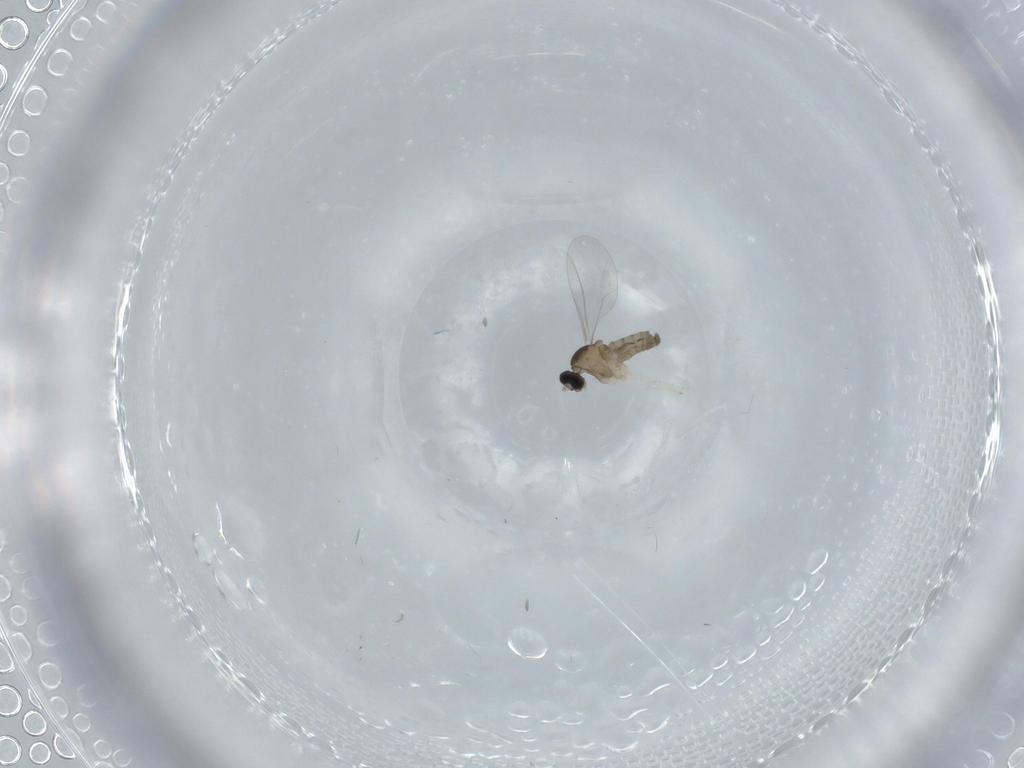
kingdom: Animalia
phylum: Arthropoda
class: Insecta
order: Diptera
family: Cecidomyiidae
